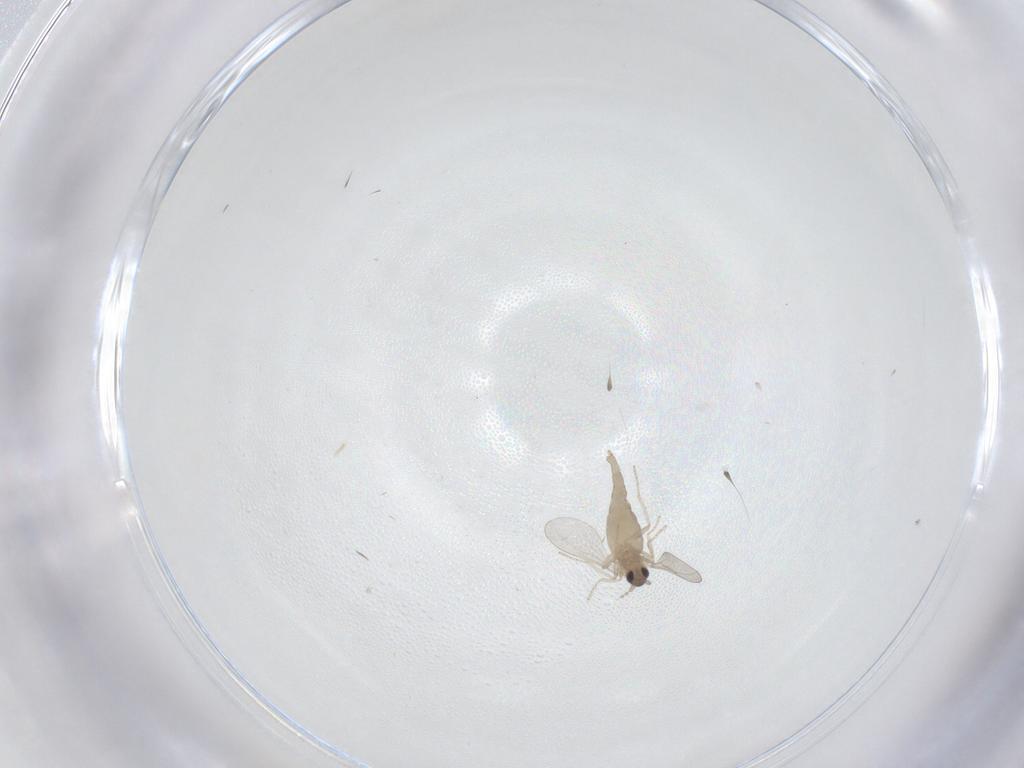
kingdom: Animalia
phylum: Arthropoda
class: Insecta
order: Diptera
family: Cecidomyiidae
